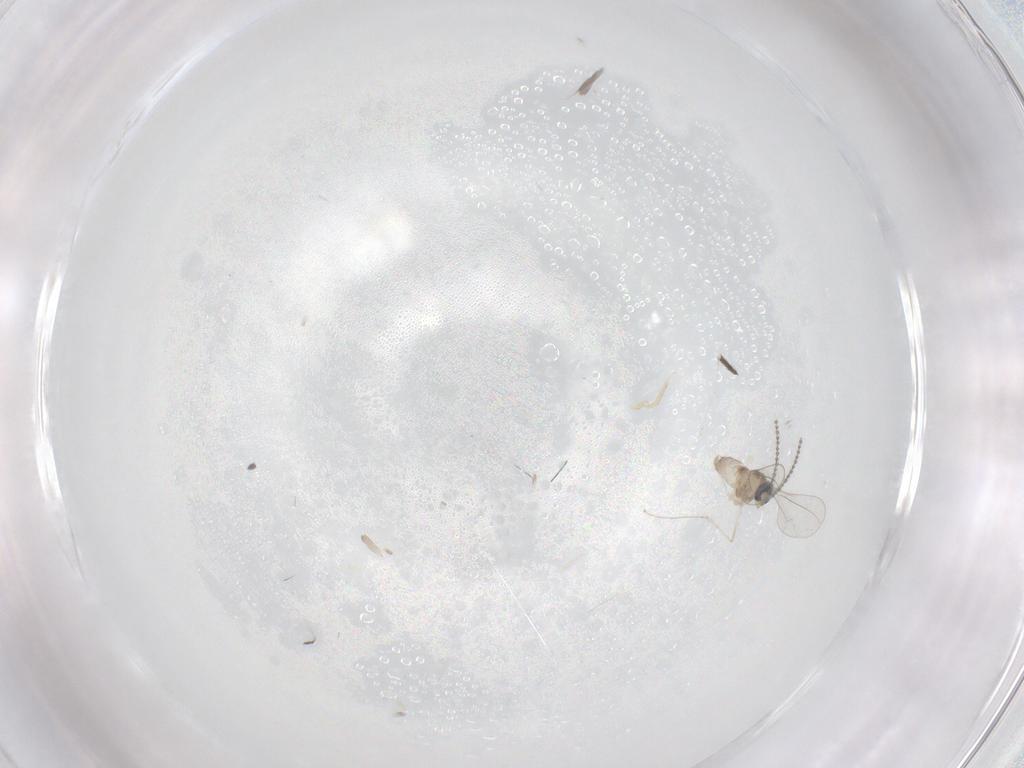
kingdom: Animalia
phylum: Arthropoda
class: Insecta
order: Diptera
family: Cecidomyiidae
